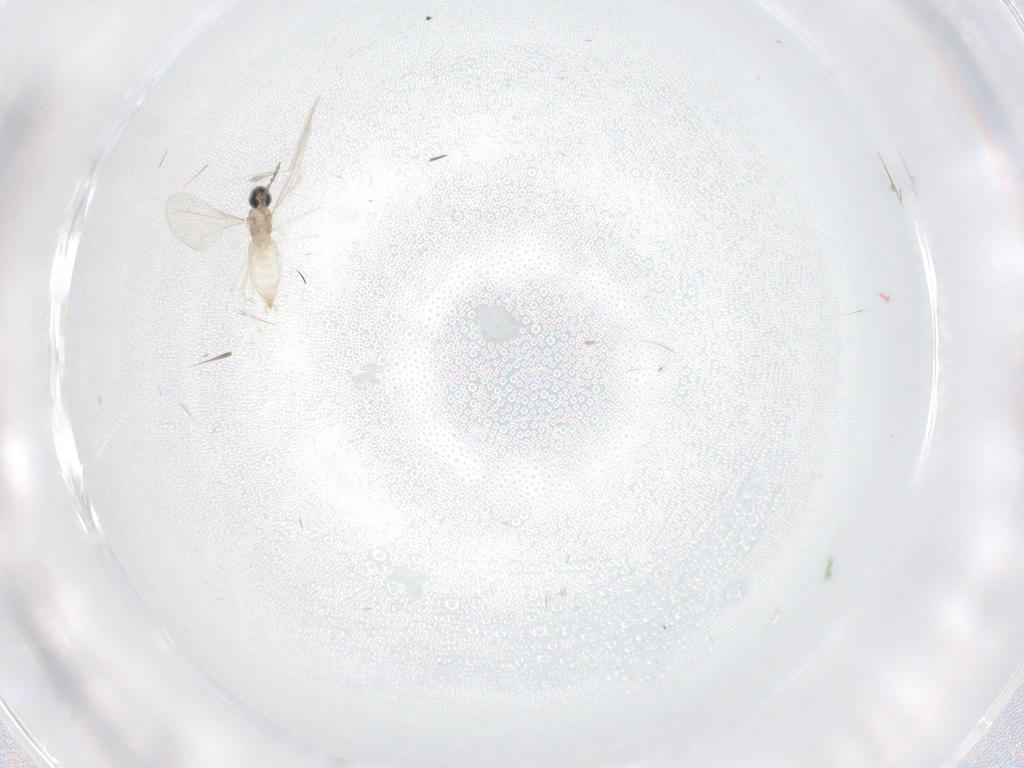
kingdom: Animalia
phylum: Arthropoda
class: Insecta
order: Diptera
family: Cecidomyiidae
